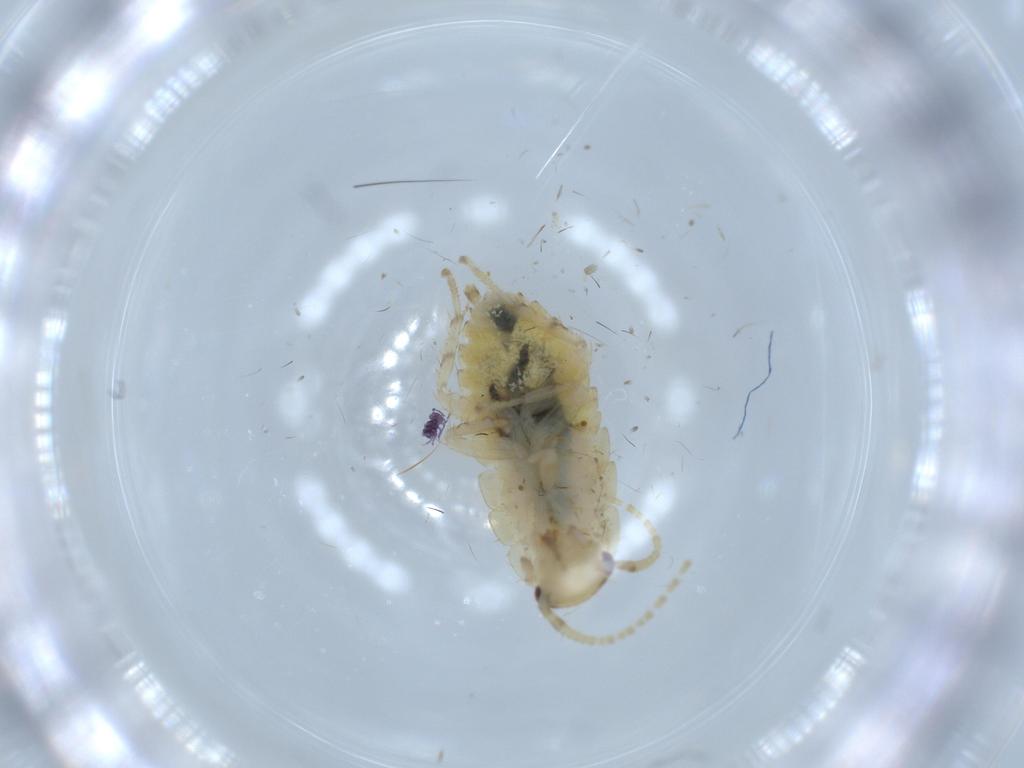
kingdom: Animalia
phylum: Arthropoda
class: Insecta
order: Blattodea
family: Ectobiidae
